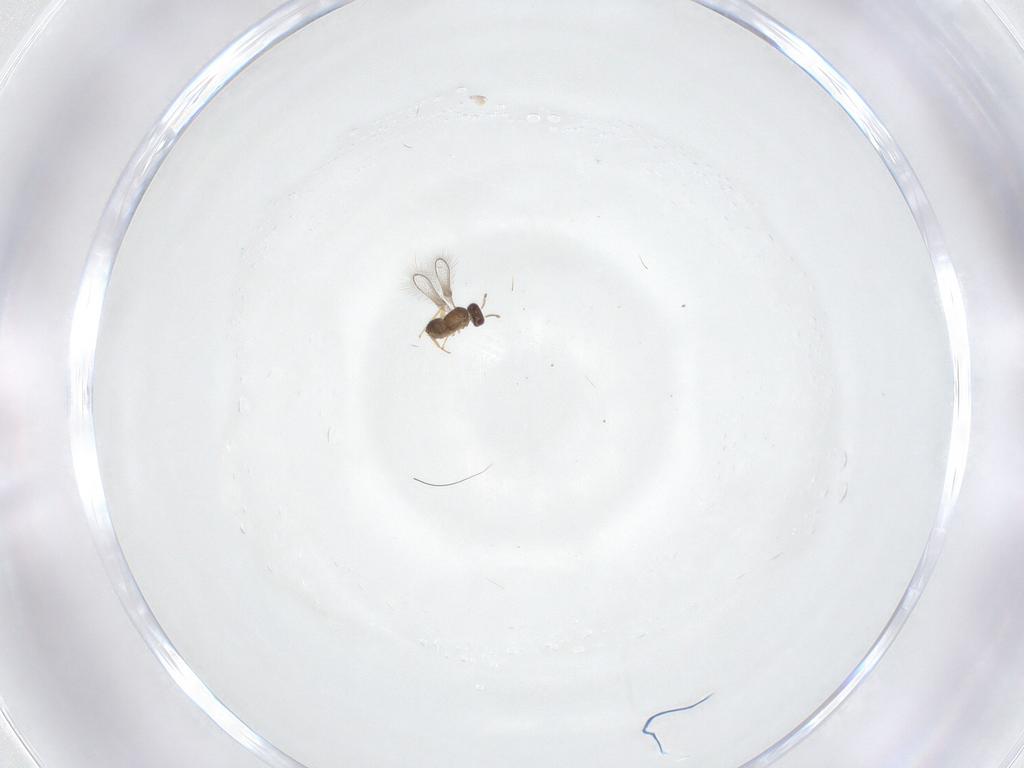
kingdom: Animalia
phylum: Arthropoda
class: Insecta
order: Hymenoptera
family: Mymaridae
